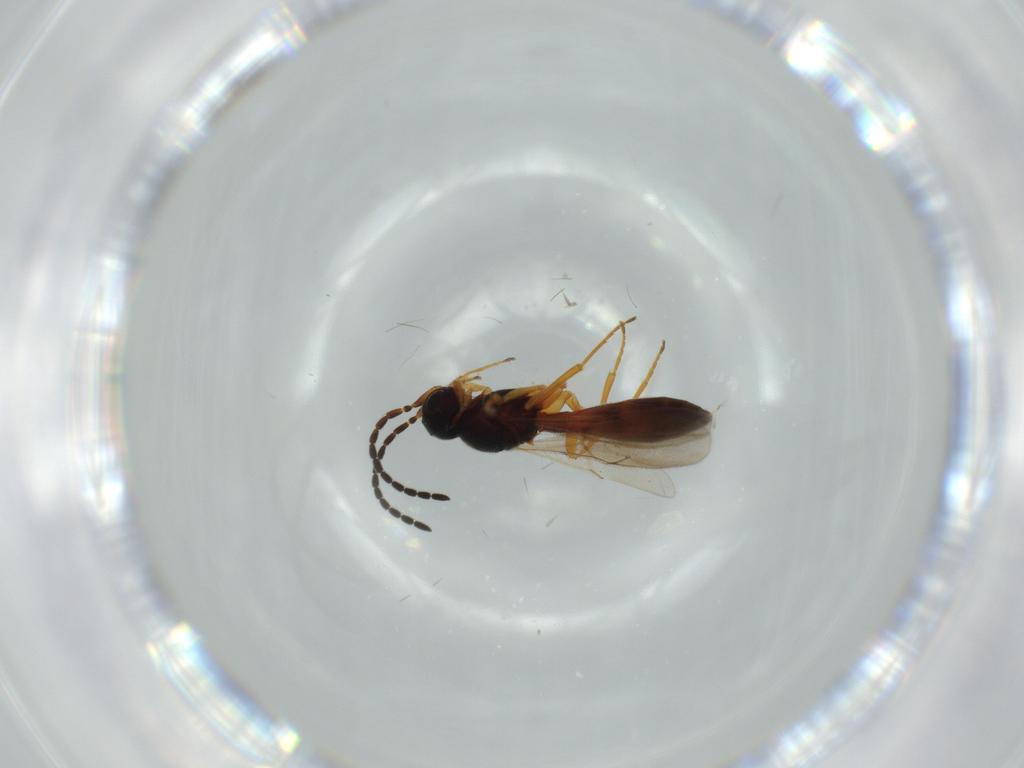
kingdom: Animalia
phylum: Arthropoda
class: Insecta
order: Hymenoptera
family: Scelionidae
